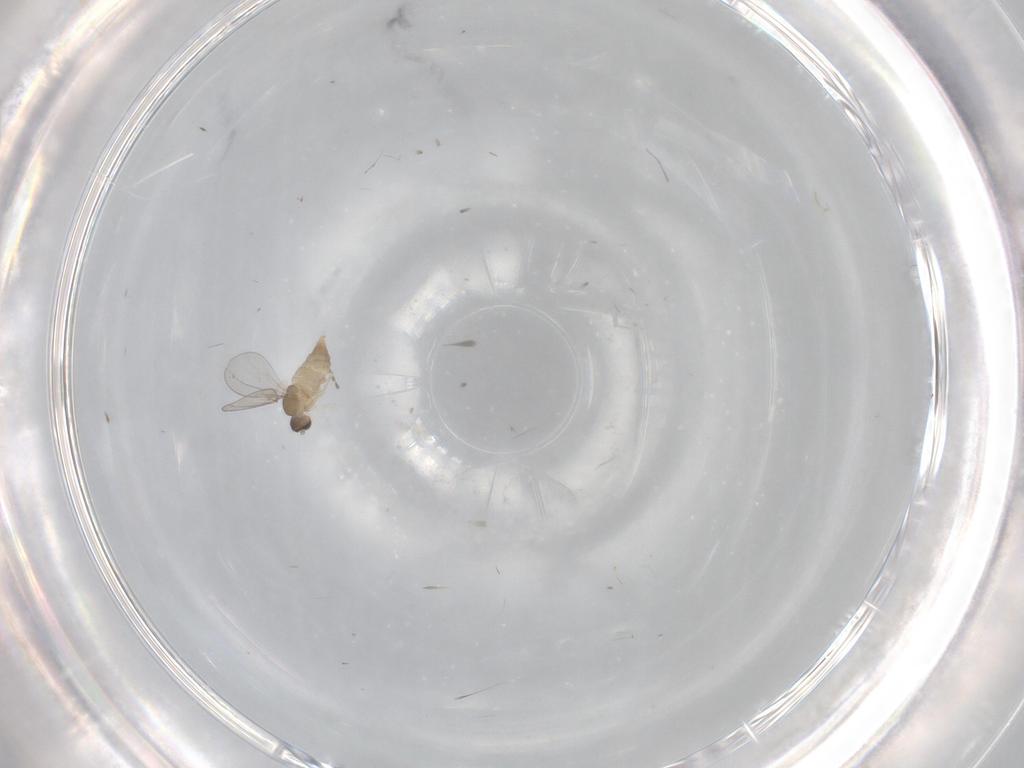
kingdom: Animalia
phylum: Arthropoda
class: Insecta
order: Diptera
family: Cecidomyiidae
